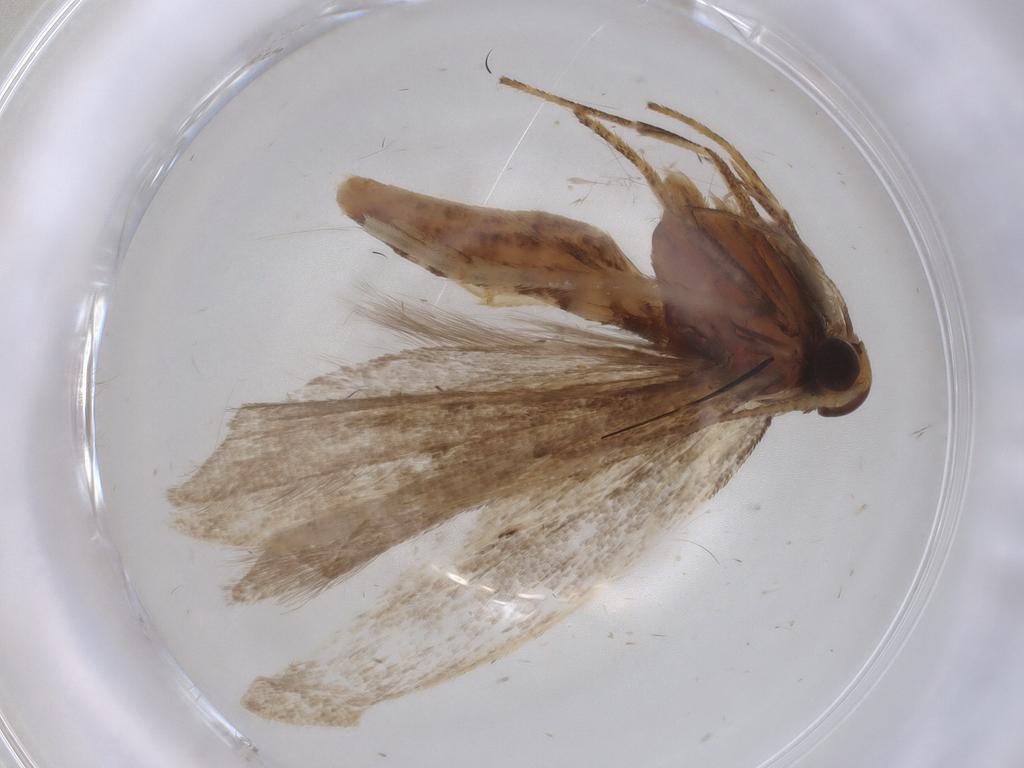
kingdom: Animalia
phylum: Arthropoda
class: Insecta
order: Lepidoptera
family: Gelechiidae
